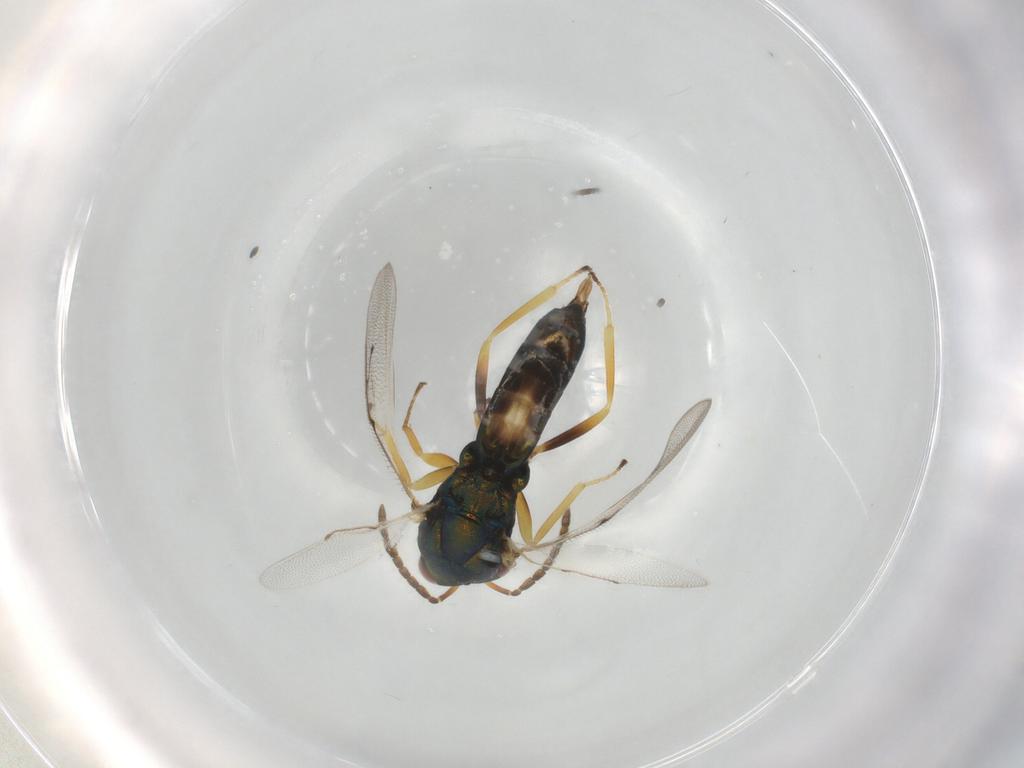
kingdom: Animalia
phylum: Arthropoda
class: Insecta
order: Hymenoptera
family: Pteromalidae
